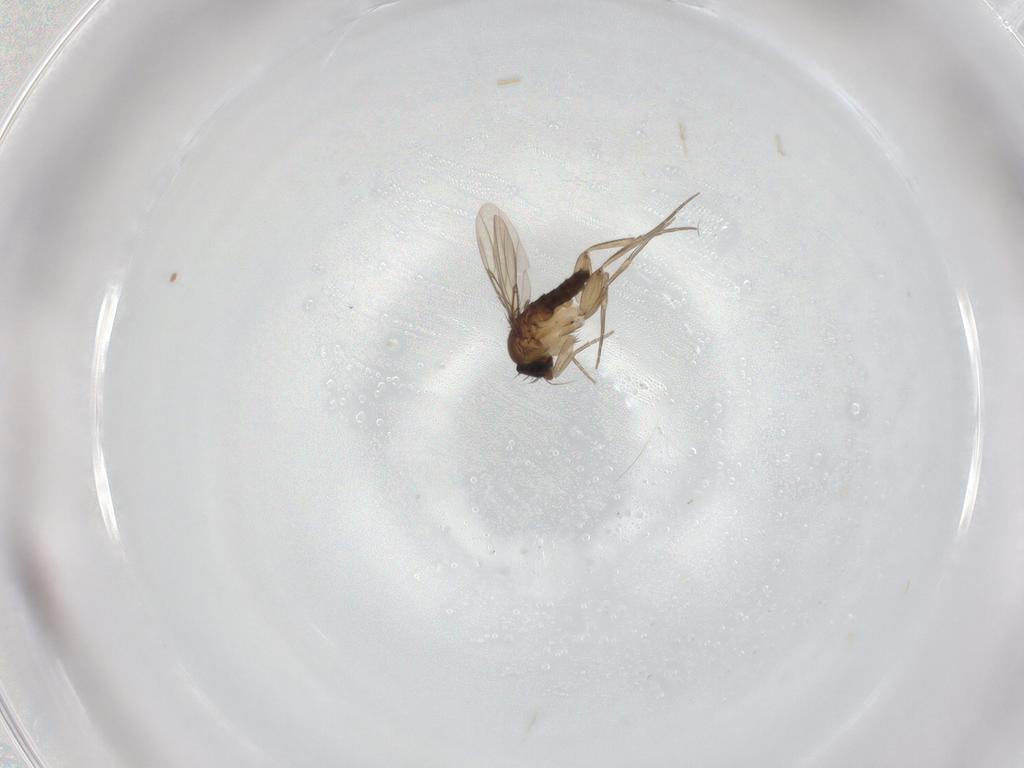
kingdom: Animalia
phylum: Arthropoda
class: Insecta
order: Diptera
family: Phoridae
